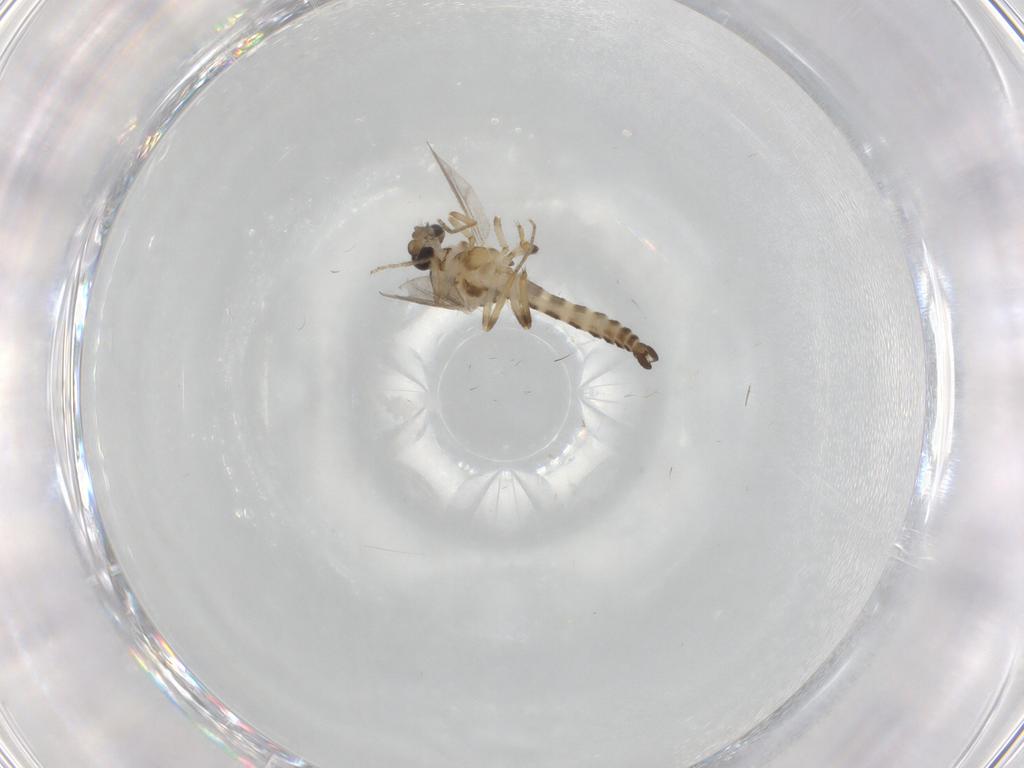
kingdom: Animalia
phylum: Arthropoda
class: Insecta
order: Diptera
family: Ceratopogonidae
